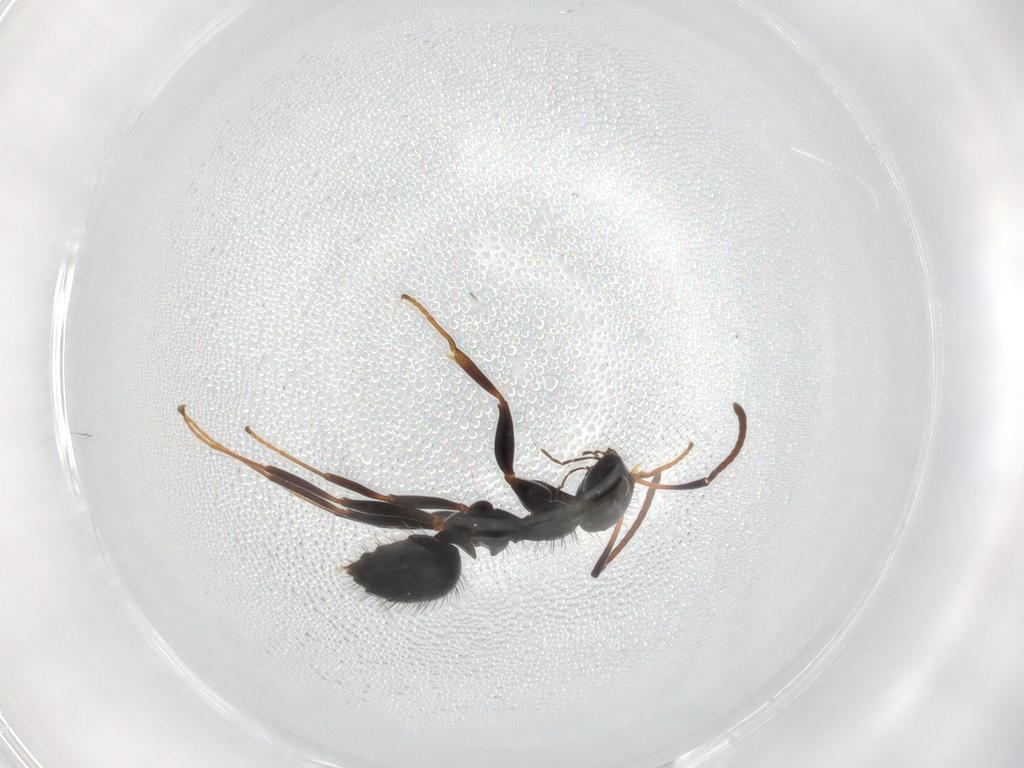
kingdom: Animalia
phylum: Arthropoda
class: Insecta
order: Hymenoptera
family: Formicidae
